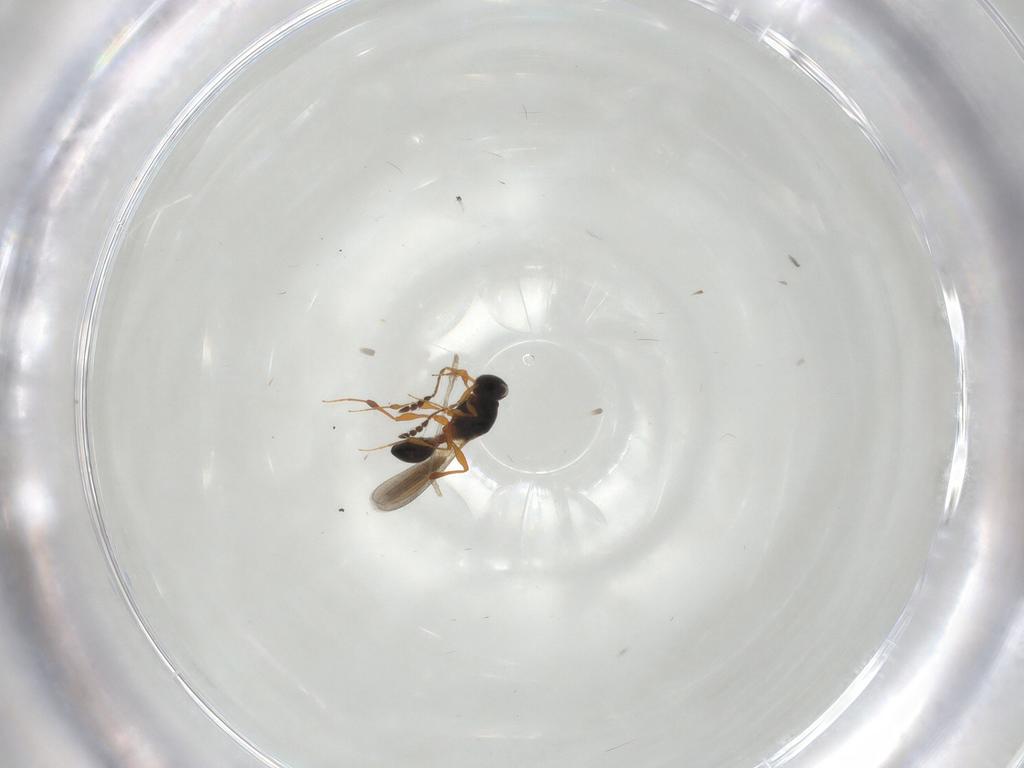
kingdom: Animalia
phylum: Arthropoda
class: Insecta
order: Hymenoptera
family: Platygastridae
